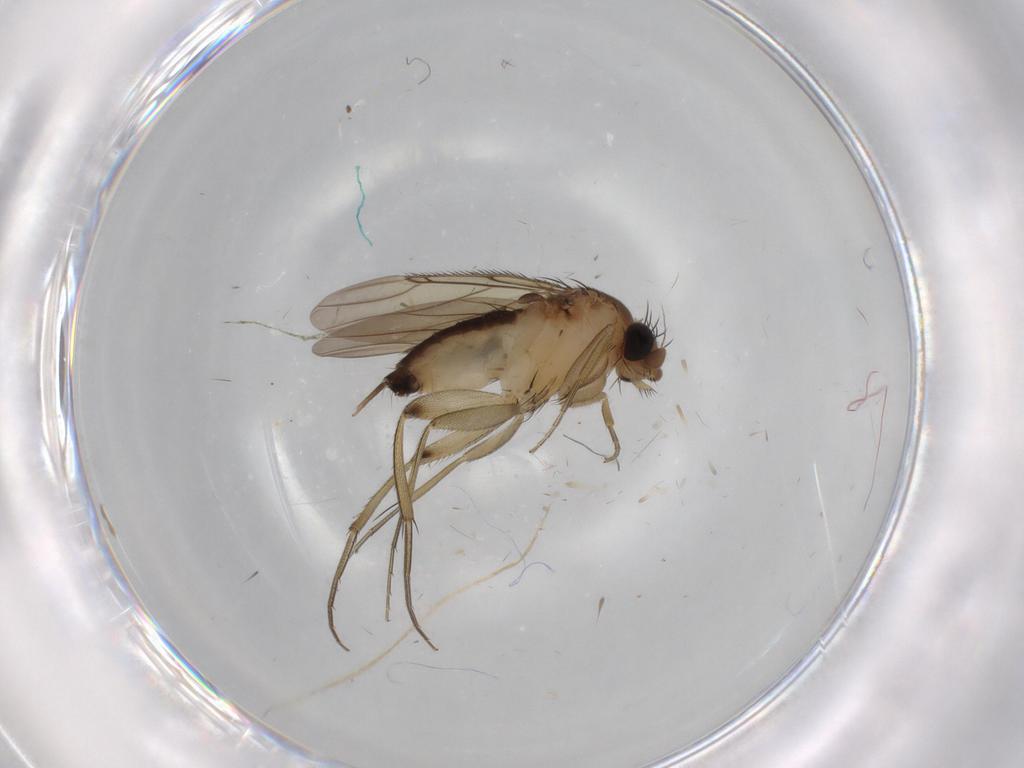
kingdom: Animalia
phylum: Arthropoda
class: Insecta
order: Diptera
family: Phoridae
